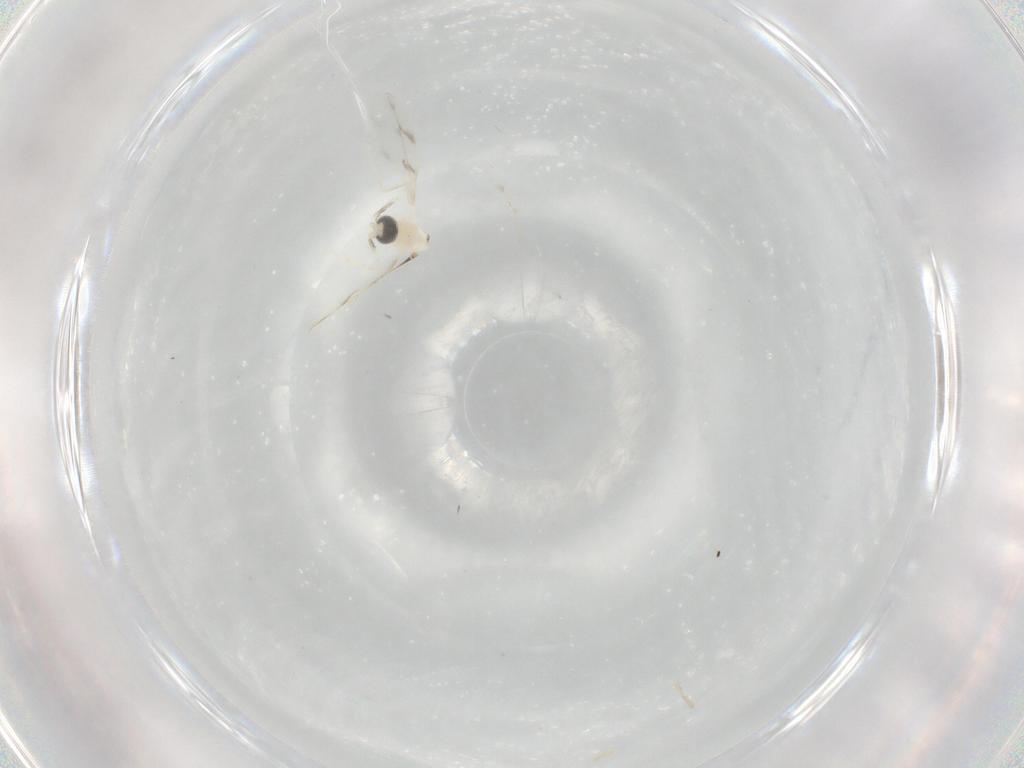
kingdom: Animalia
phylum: Arthropoda
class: Insecta
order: Diptera
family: Cecidomyiidae
